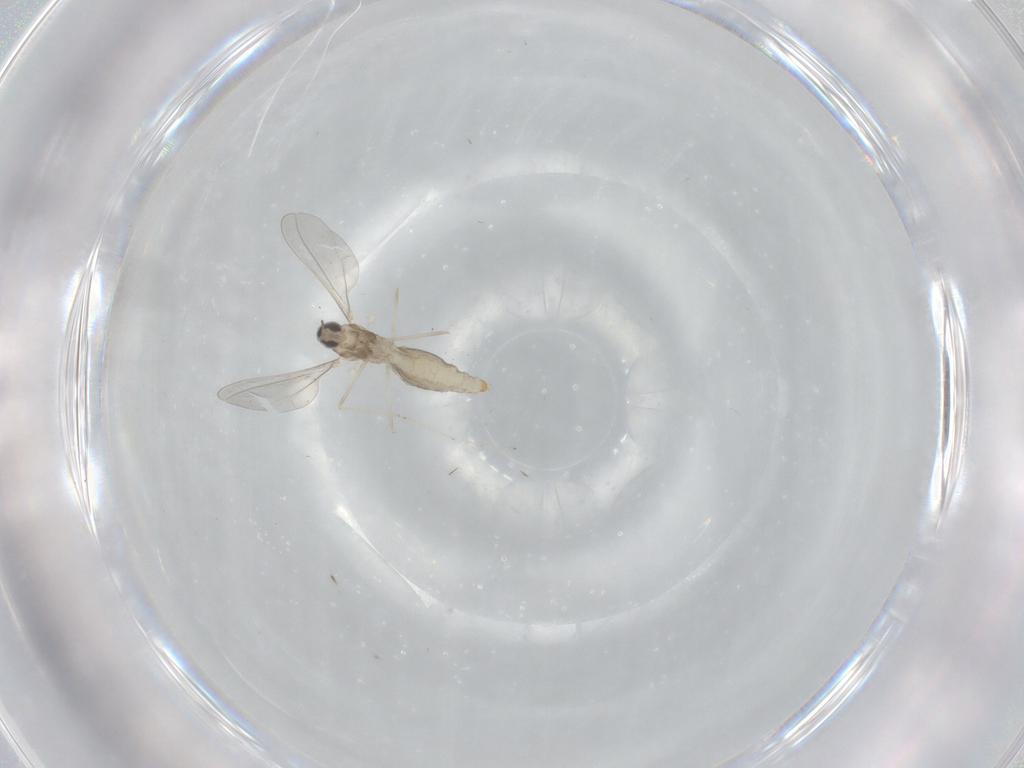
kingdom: Animalia
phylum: Arthropoda
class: Insecta
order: Diptera
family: Cecidomyiidae
